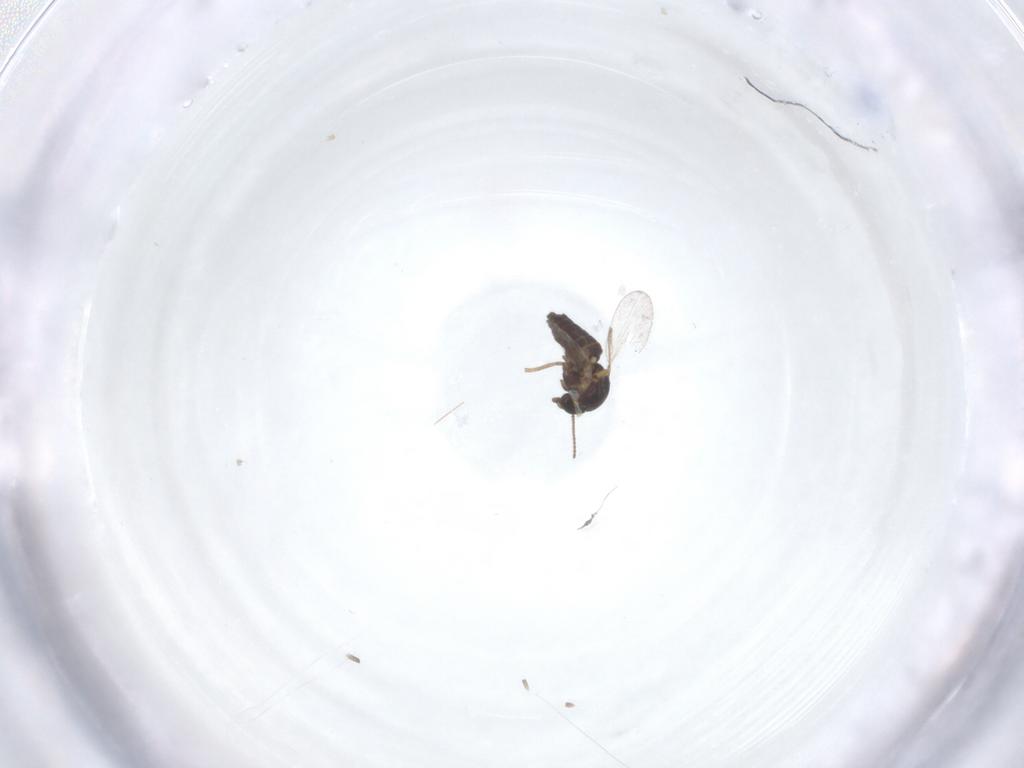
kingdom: Animalia
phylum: Arthropoda
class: Insecta
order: Diptera
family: Ceratopogonidae
